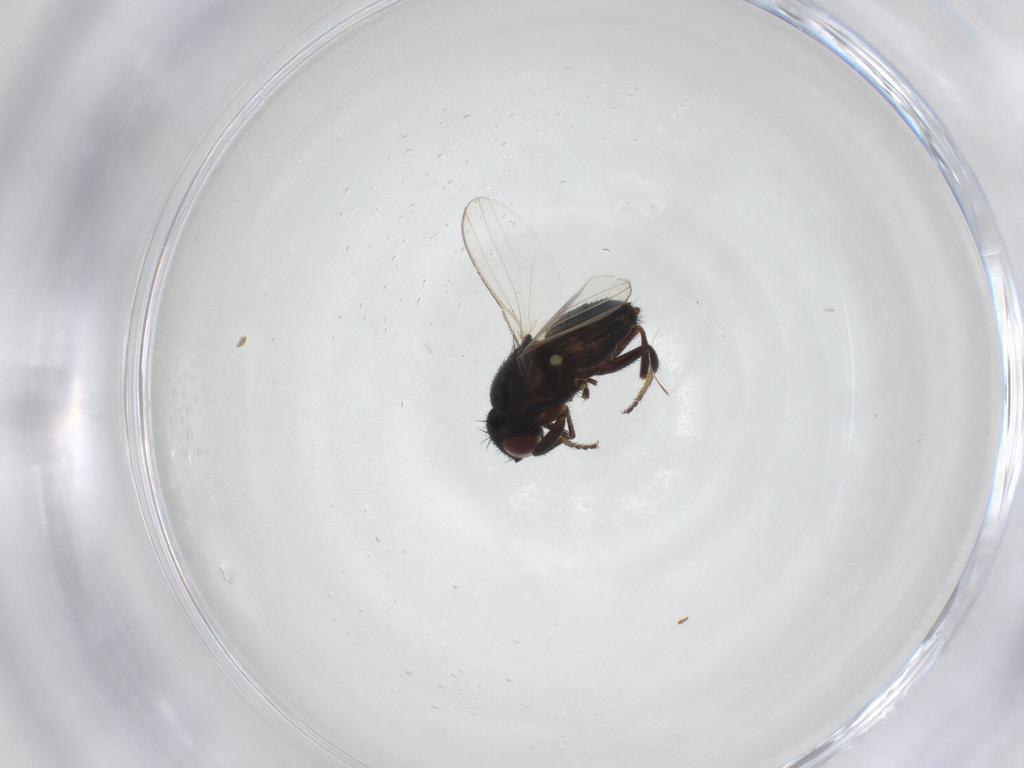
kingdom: Animalia
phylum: Arthropoda
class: Insecta
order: Diptera
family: Milichiidae
